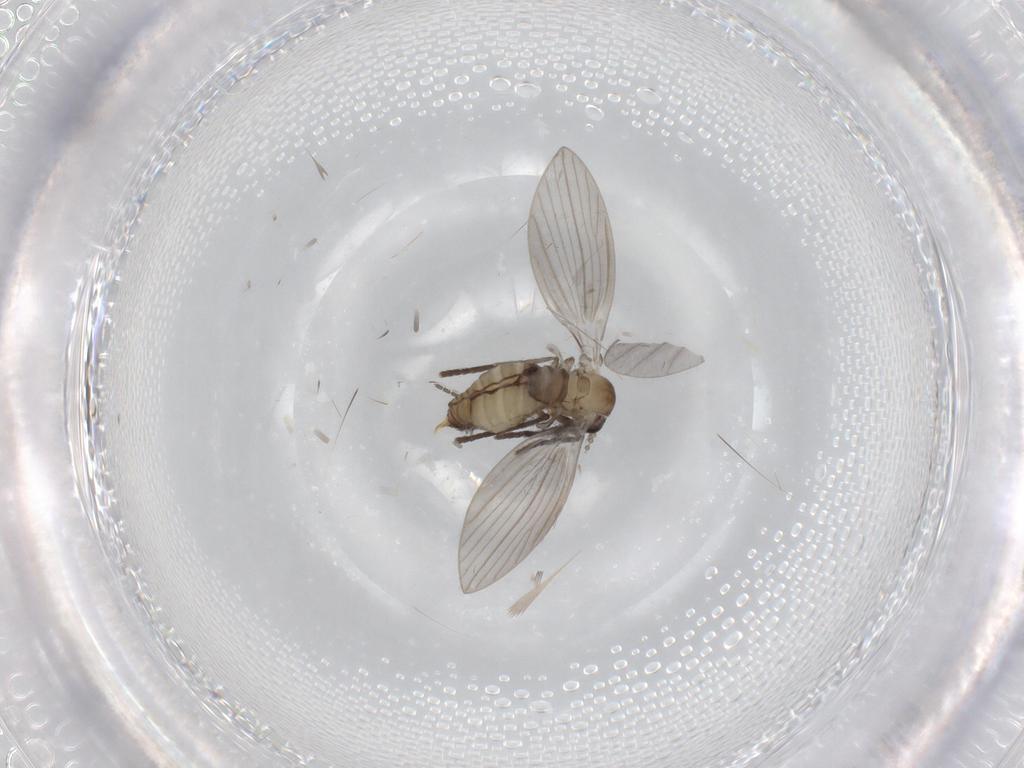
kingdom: Animalia
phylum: Arthropoda
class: Insecta
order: Diptera
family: Psychodidae
